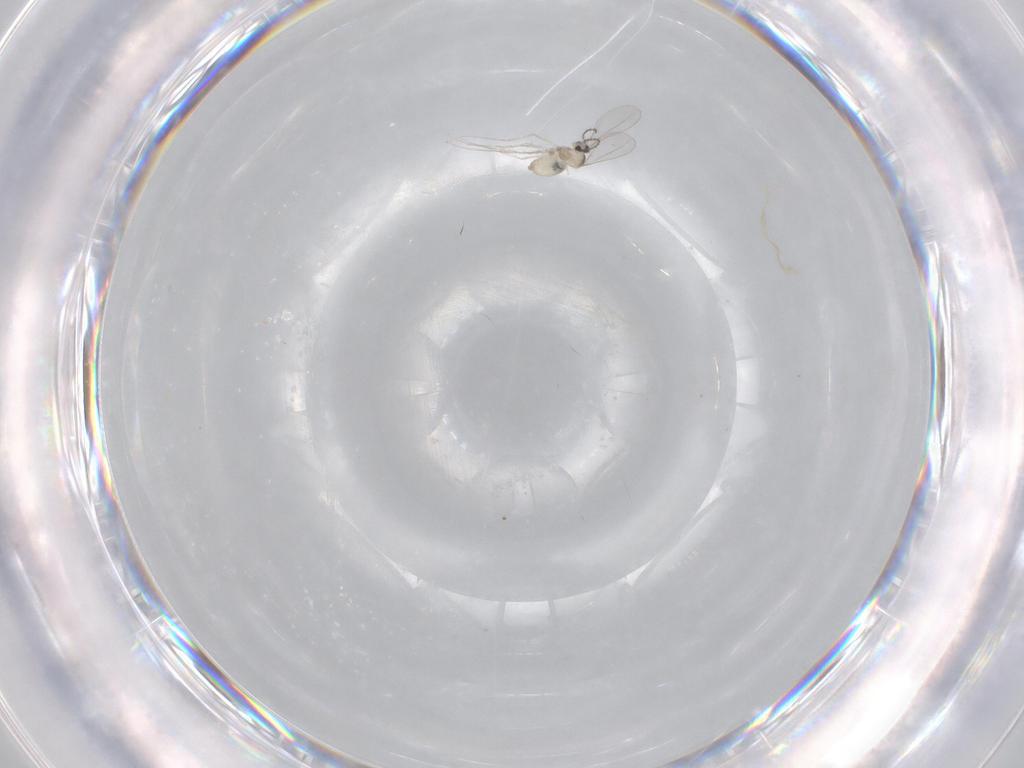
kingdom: Animalia
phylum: Arthropoda
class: Insecta
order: Diptera
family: Cecidomyiidae
